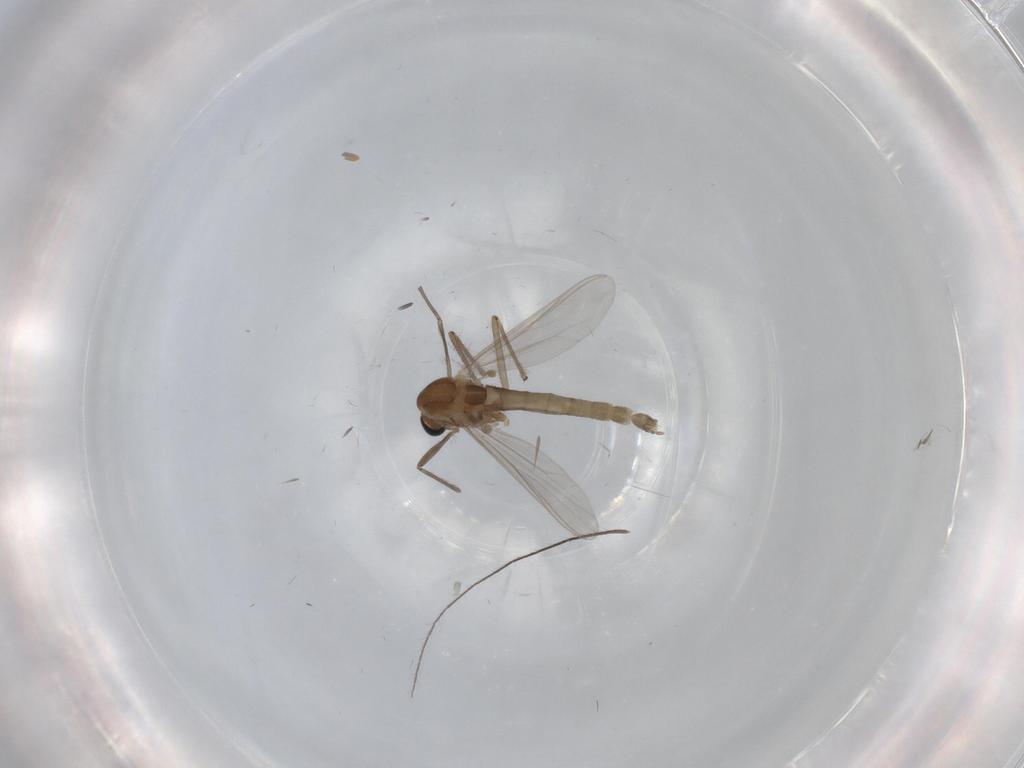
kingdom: Animalia
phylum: Arthropoda
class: Insecta
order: Diptera
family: Chironomidae
